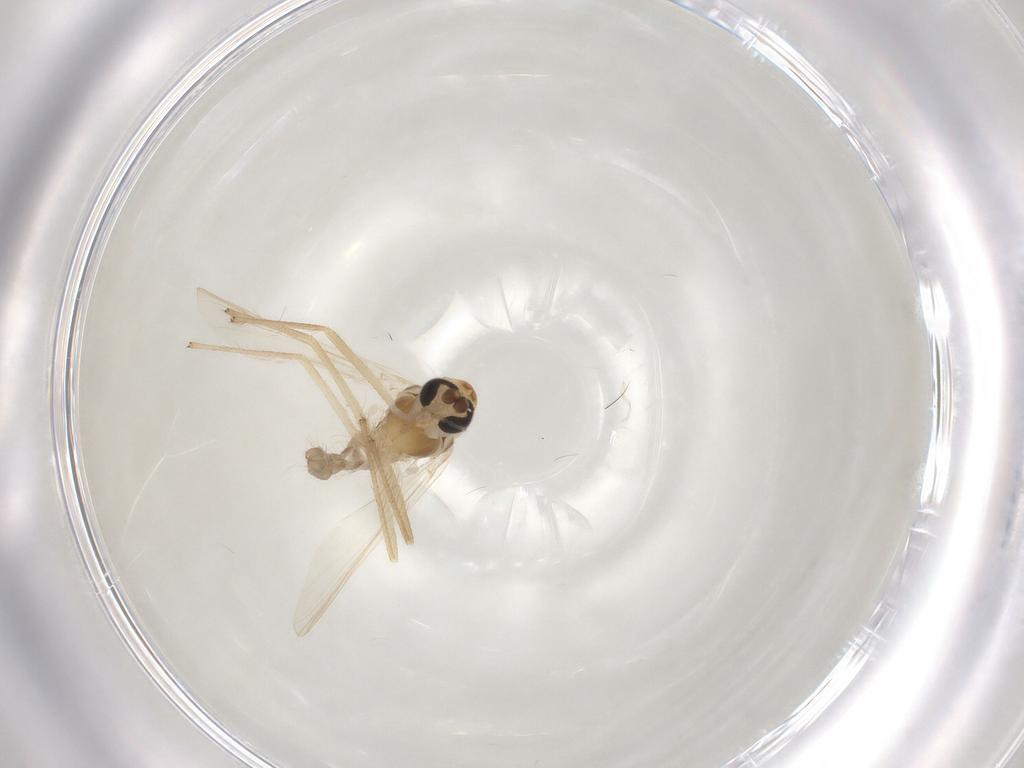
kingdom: Animalia
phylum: Arthropoda
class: Insecta
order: Diptera
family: Chironomidae
